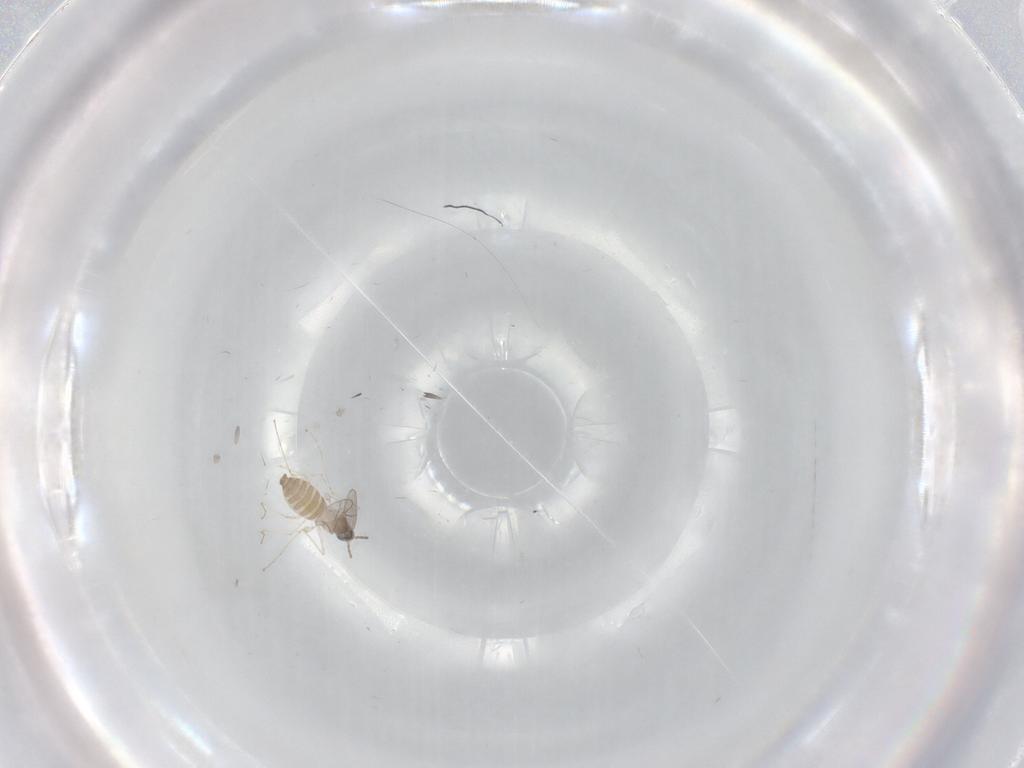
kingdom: Animalia
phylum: Arthropoda
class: Insecta
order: Diptera
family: Cecidomyiidae
